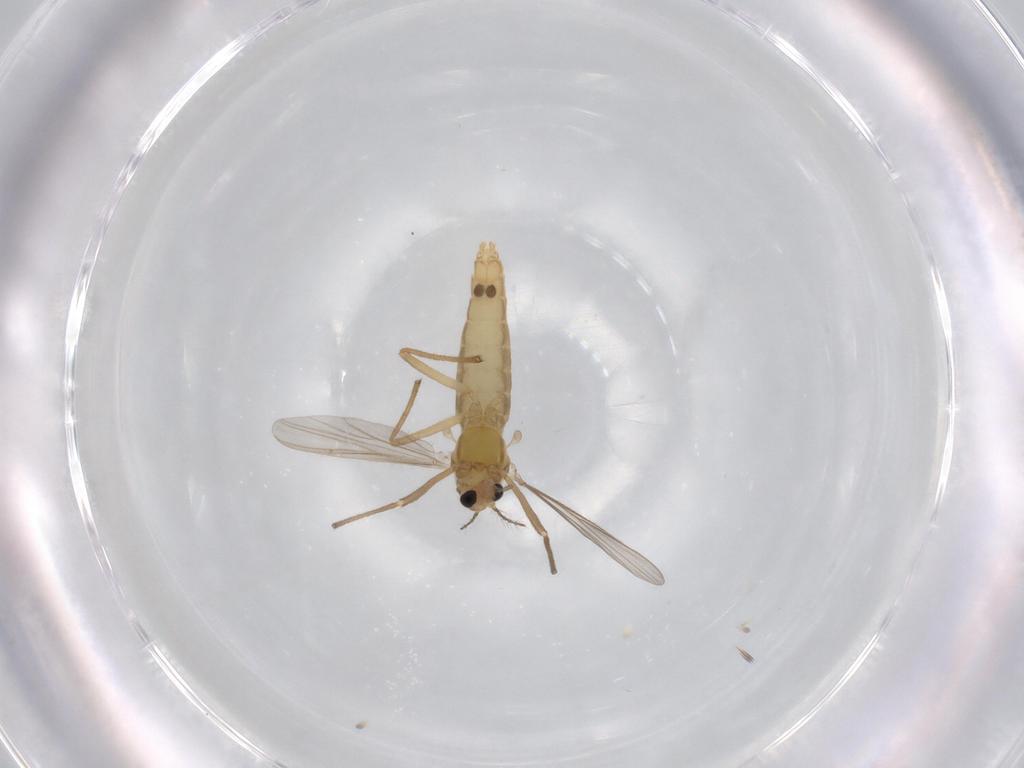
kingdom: Animalia
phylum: Arthropoda
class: Insecta
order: Diptera
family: Chironomidae
